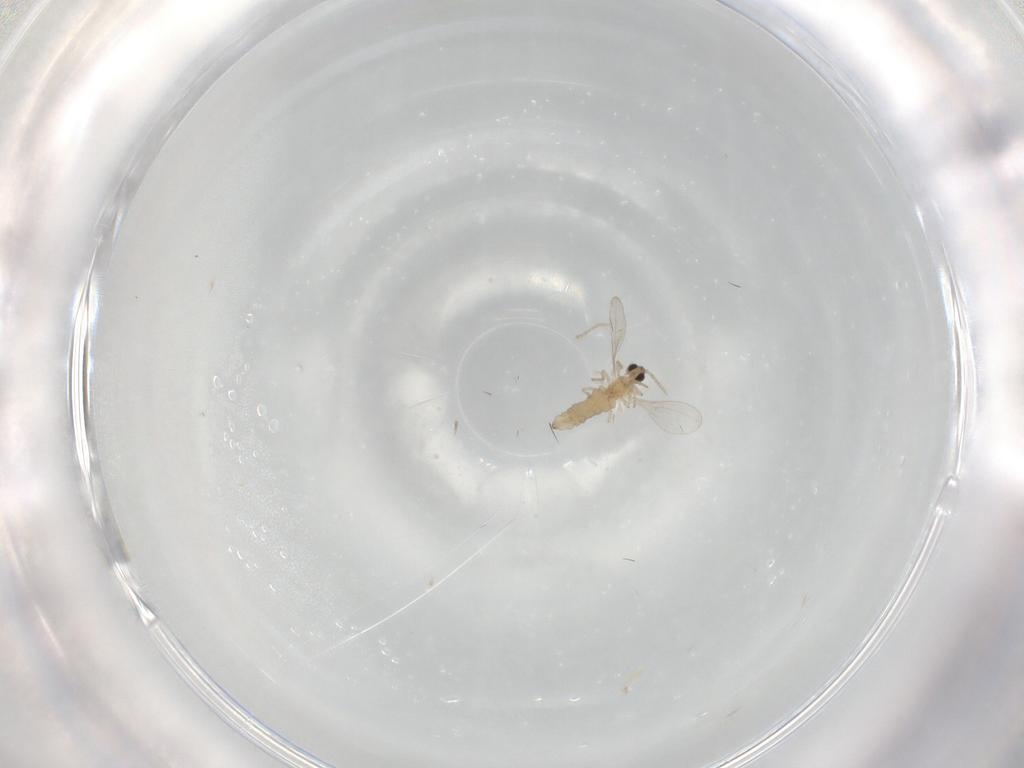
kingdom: Animalia
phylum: Arthropoda
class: Insecta
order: Diptera
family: Cecidomyiidae
